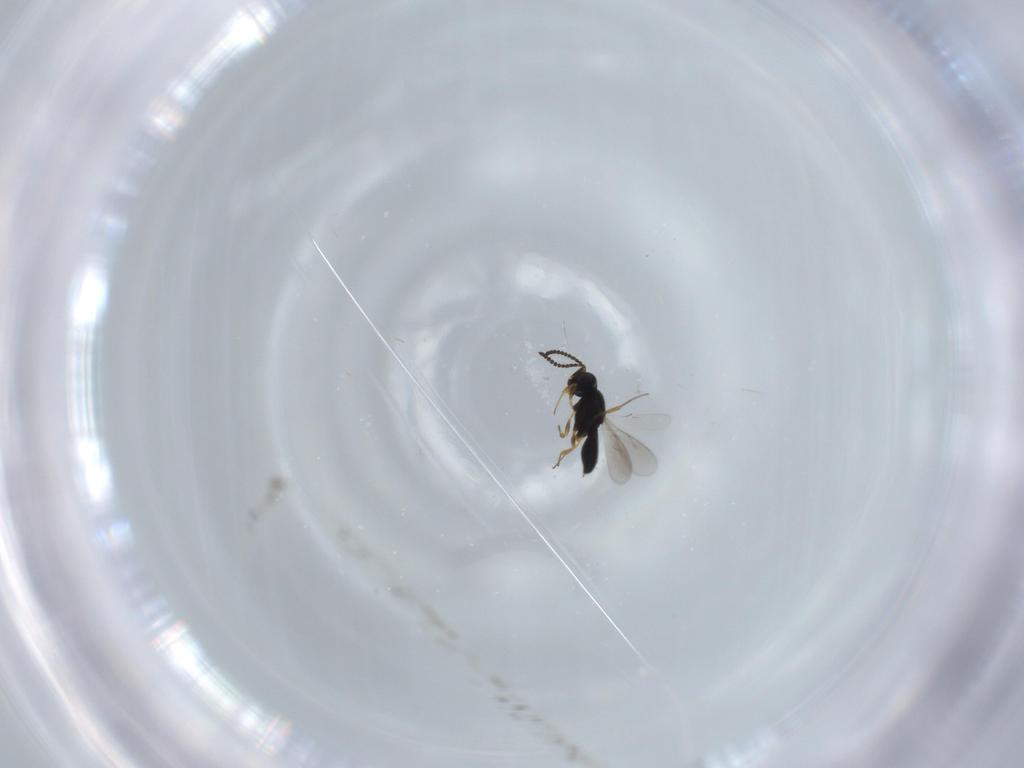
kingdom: Animalia
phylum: Arthropoda
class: Insecta
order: Hymenoptera
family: Scelionidae
